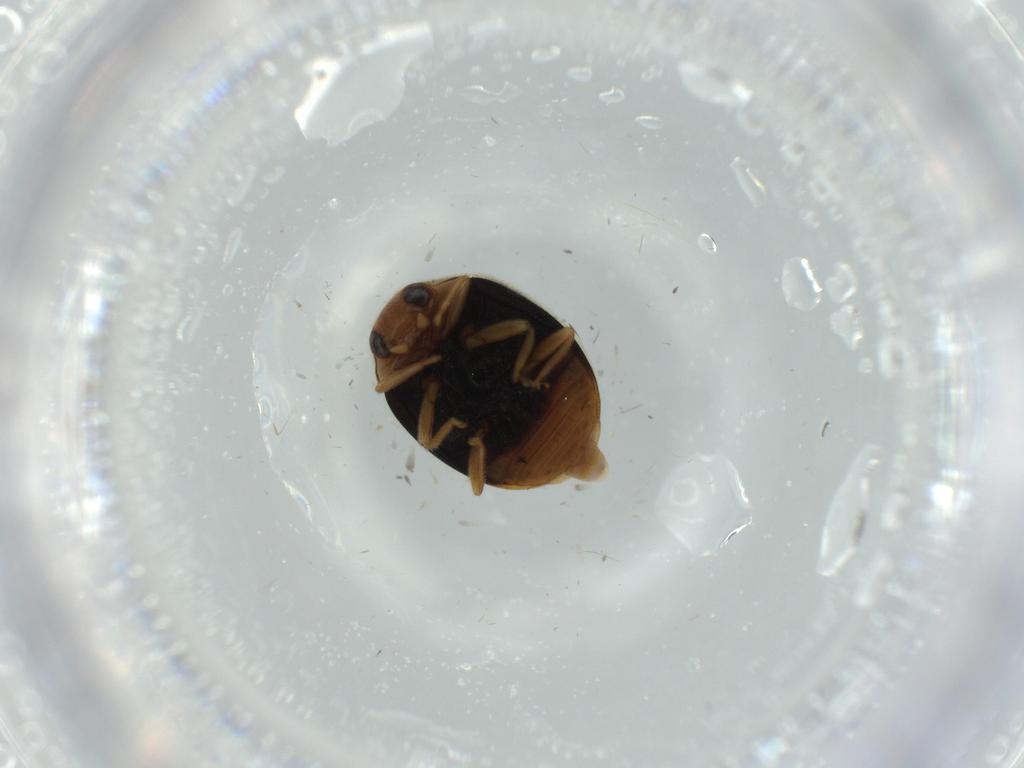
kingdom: Animalia
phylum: Arthropoda
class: Insecta
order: Coleoptera
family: Coccinellidae
